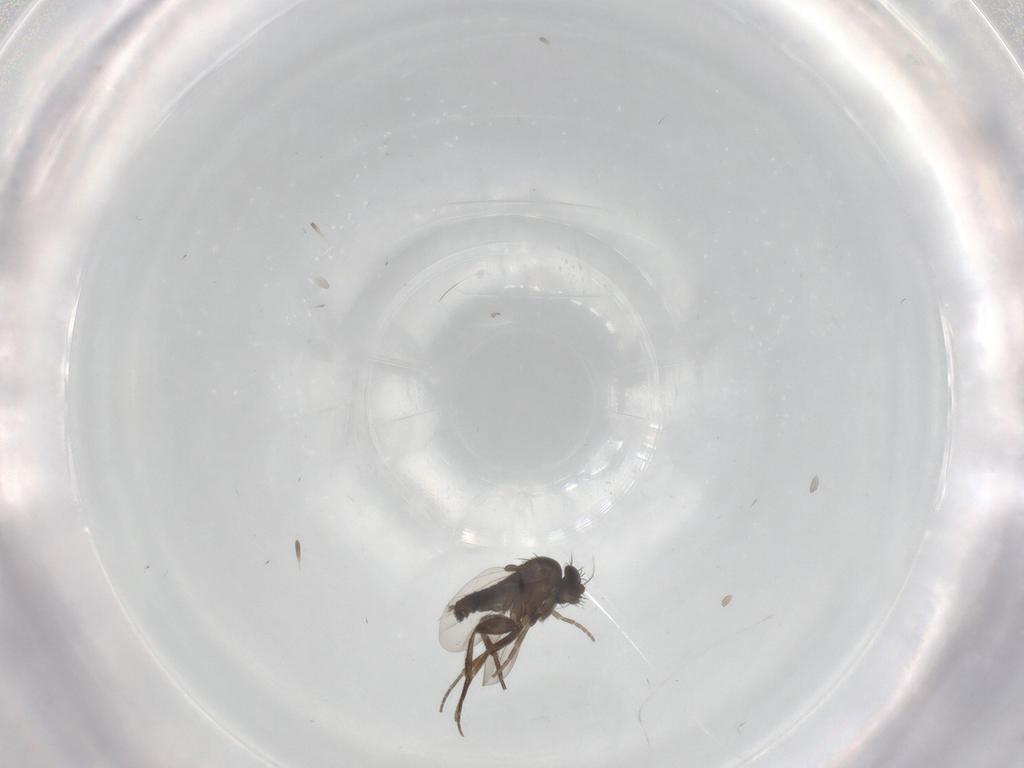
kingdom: Animalia
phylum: Arthropoda
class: Insecta
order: Diptera
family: Phoridae
